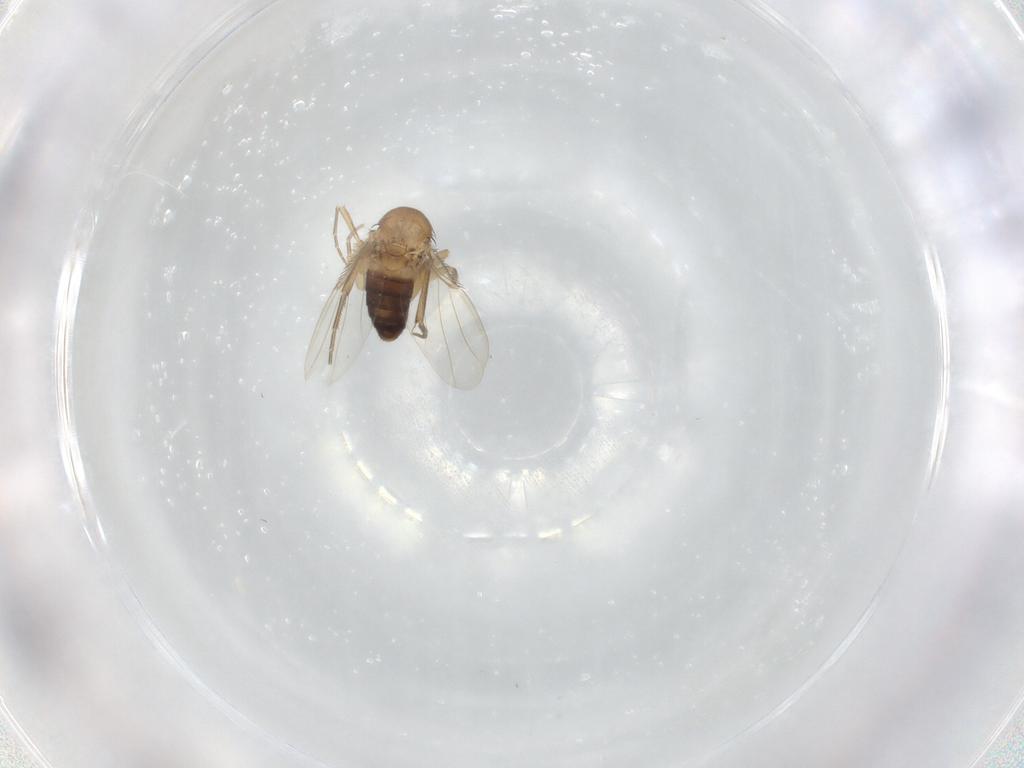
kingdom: Animalia
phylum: Arthropoda
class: Insecta
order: Diptera
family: Phoridae
